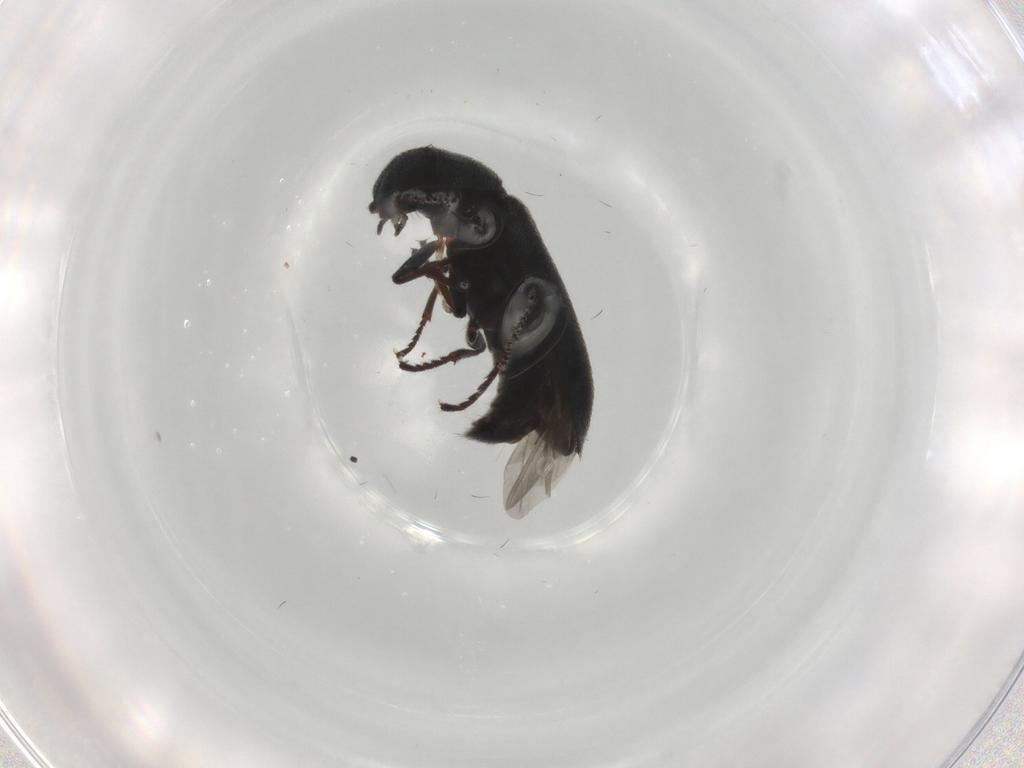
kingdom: Animalia
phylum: Arthropoda
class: Insecta
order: Coleoptera
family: Melyridae
